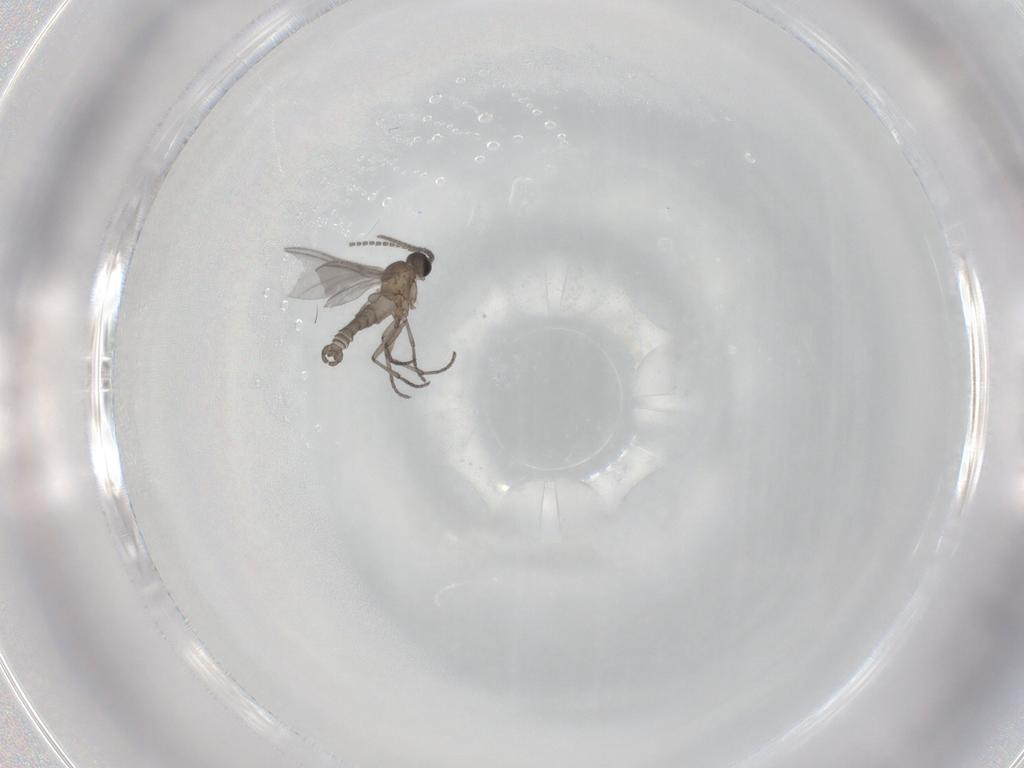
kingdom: Animalia
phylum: Arthropoda
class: Insecta
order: Diptera
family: Sciaridae
